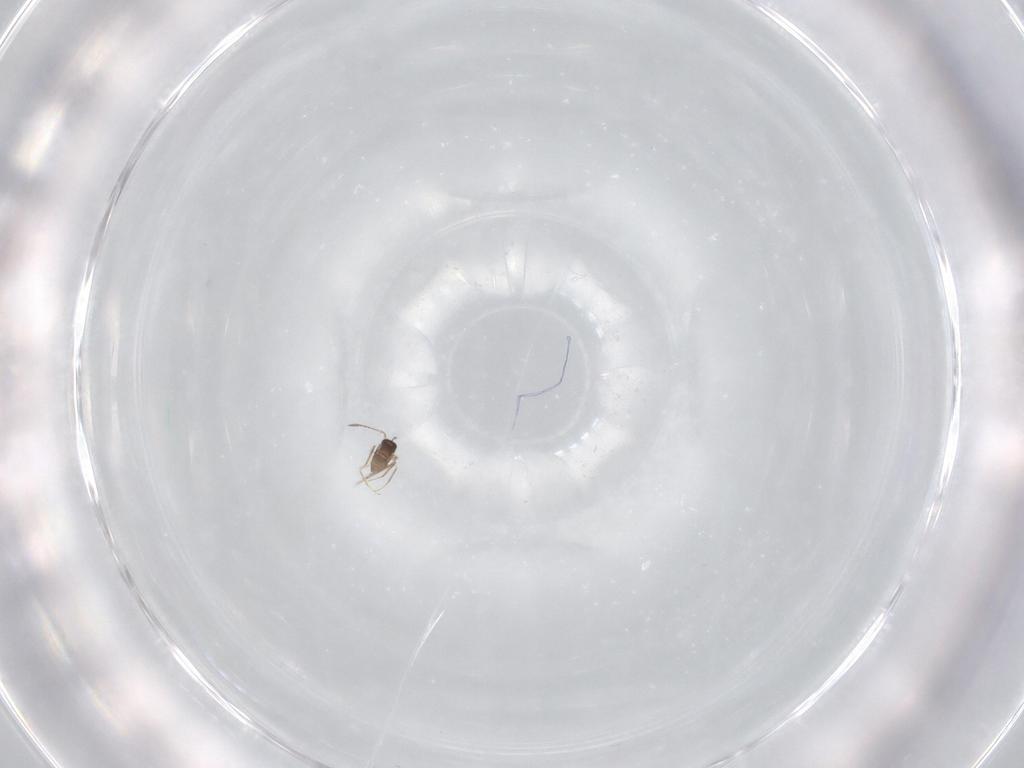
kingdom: Animalia
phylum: Arthropoda
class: Insecta
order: Hymenoptera
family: Mymaridae
